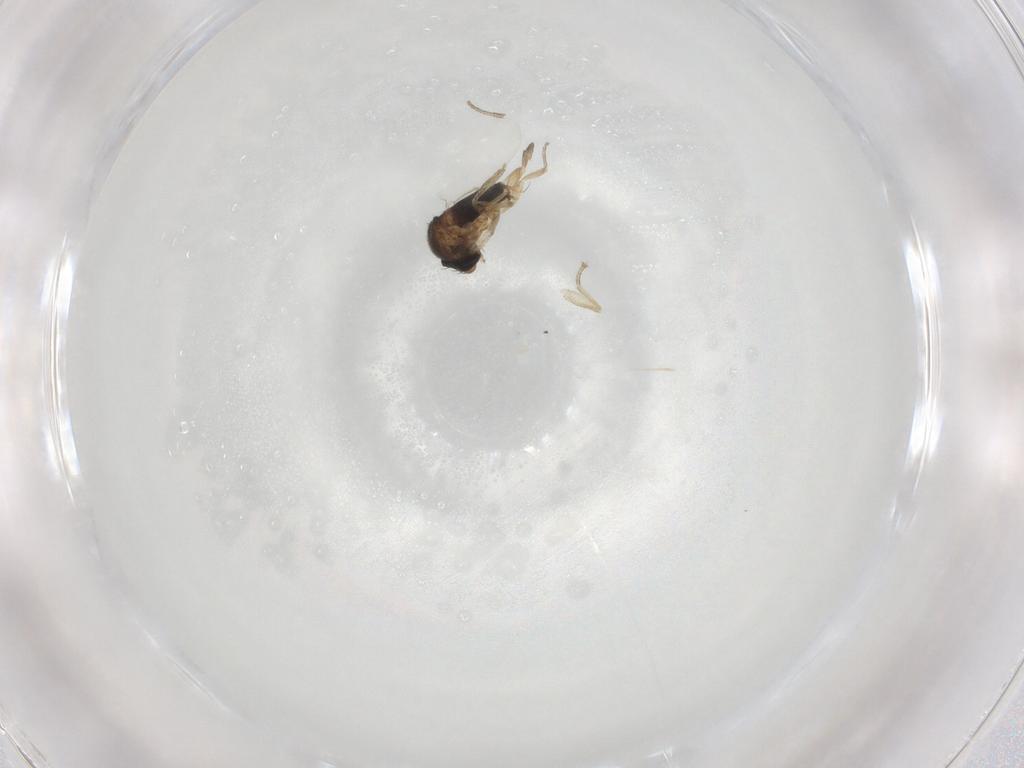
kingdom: Animalia
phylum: Arthropoda
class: Insecta
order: Diptera
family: Phoridae
